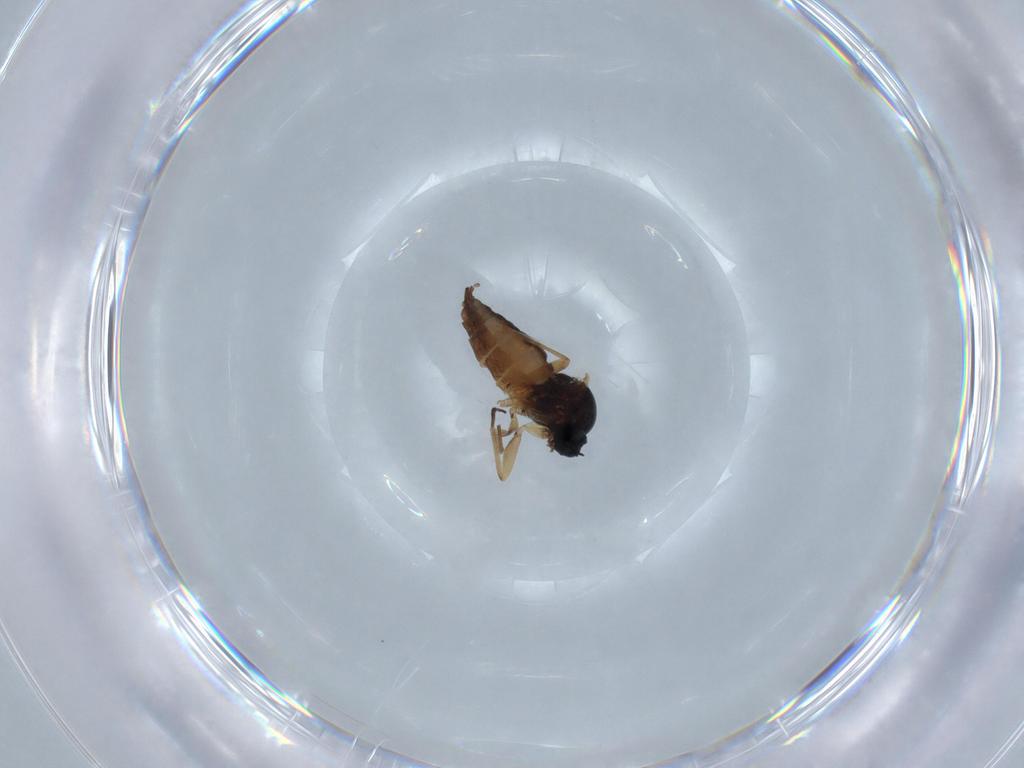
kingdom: Animalia
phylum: Arthropoda
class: Insecta
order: Diptera
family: Sciaridae
